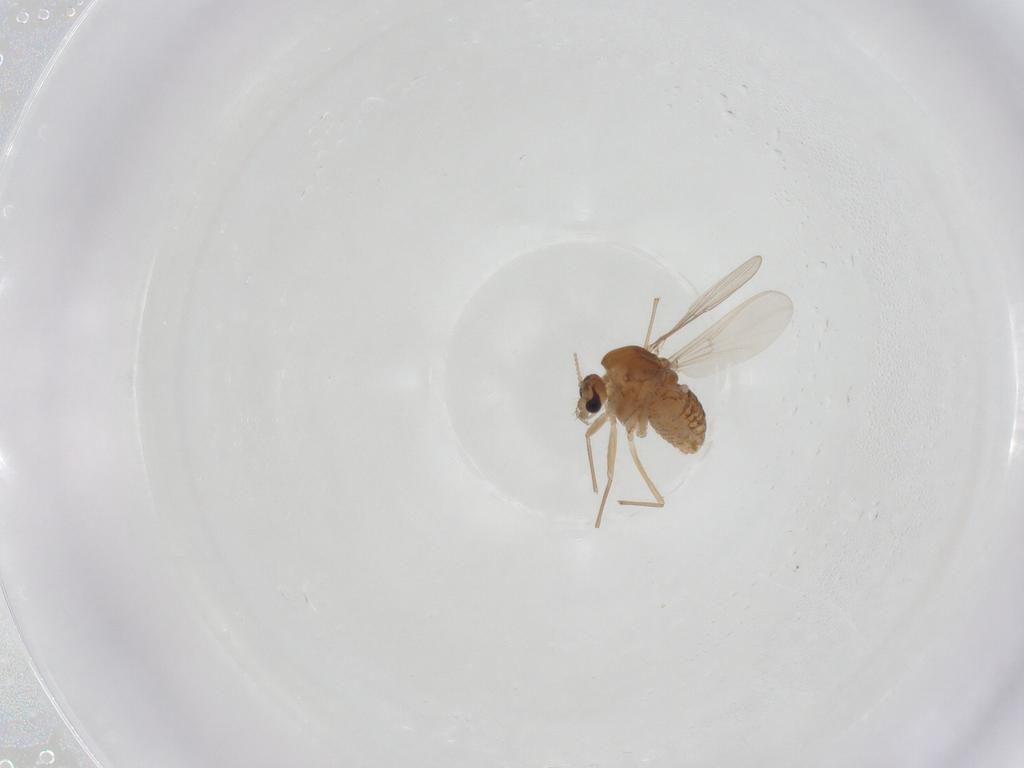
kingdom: Animalia
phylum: Arthropoda
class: Insecta
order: Diptera
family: Chironomidae
